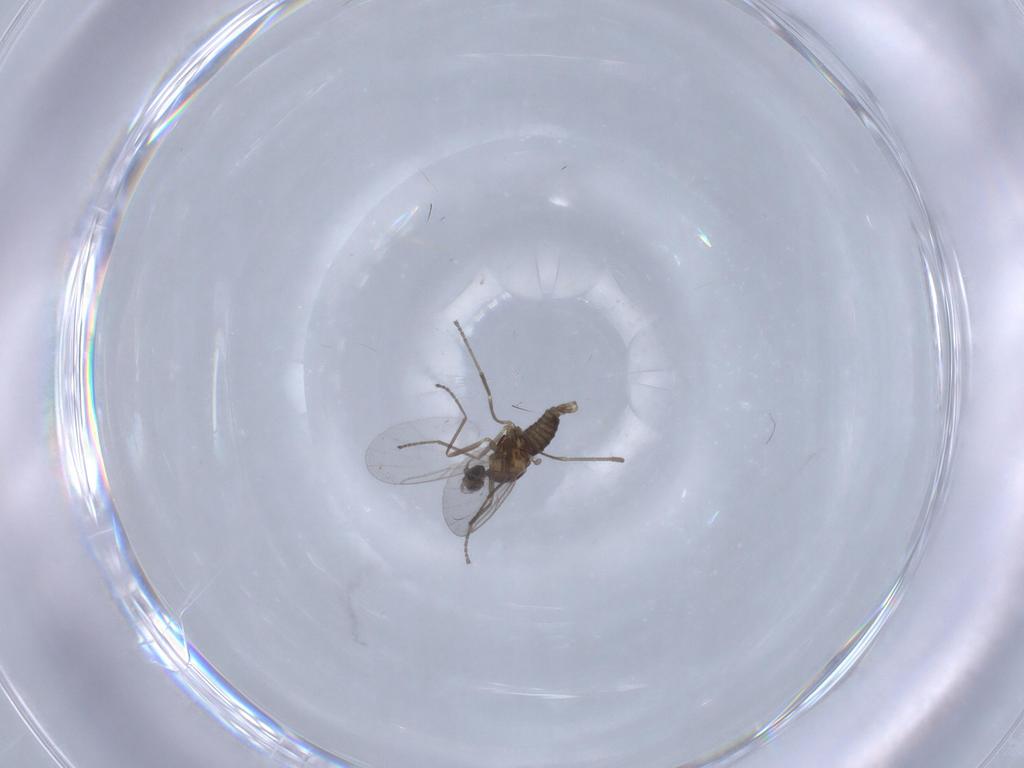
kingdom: Animalia
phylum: Arthropoda
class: Insecta
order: Diptera
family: Cecidomyiidae
